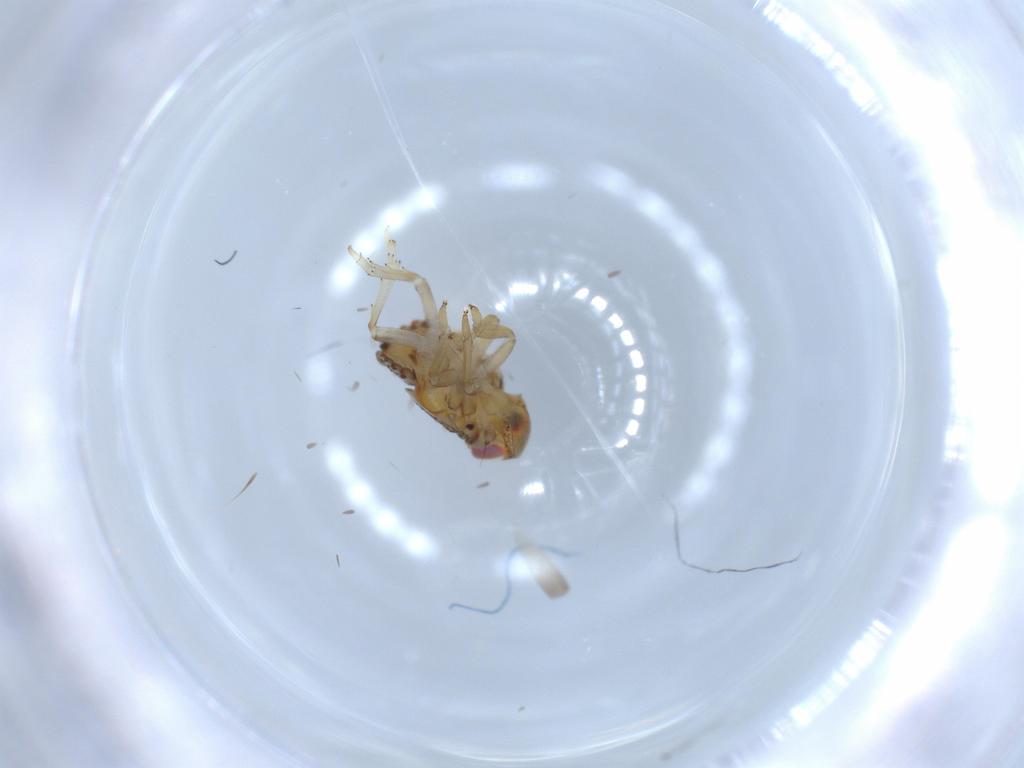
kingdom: Animalia
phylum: Arthropoda
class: Insecta
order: Hemiptera
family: Issidae
